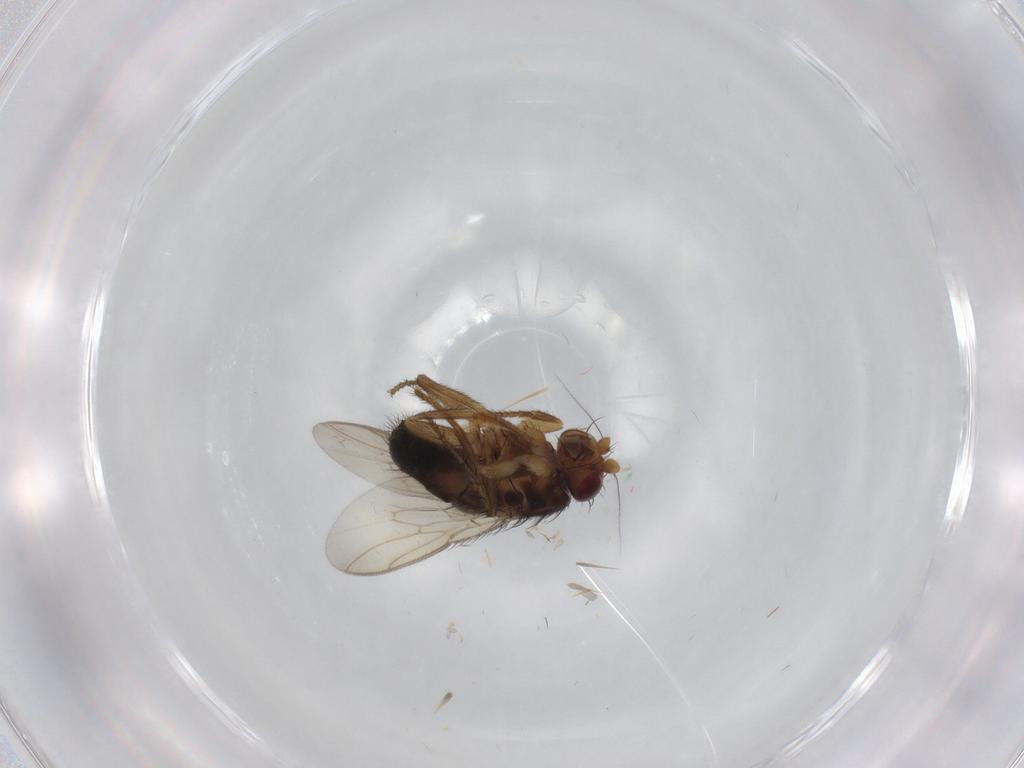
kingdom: Animalia
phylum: Arthropoda
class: Insecta
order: Diptera
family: Sphaeroceridae
